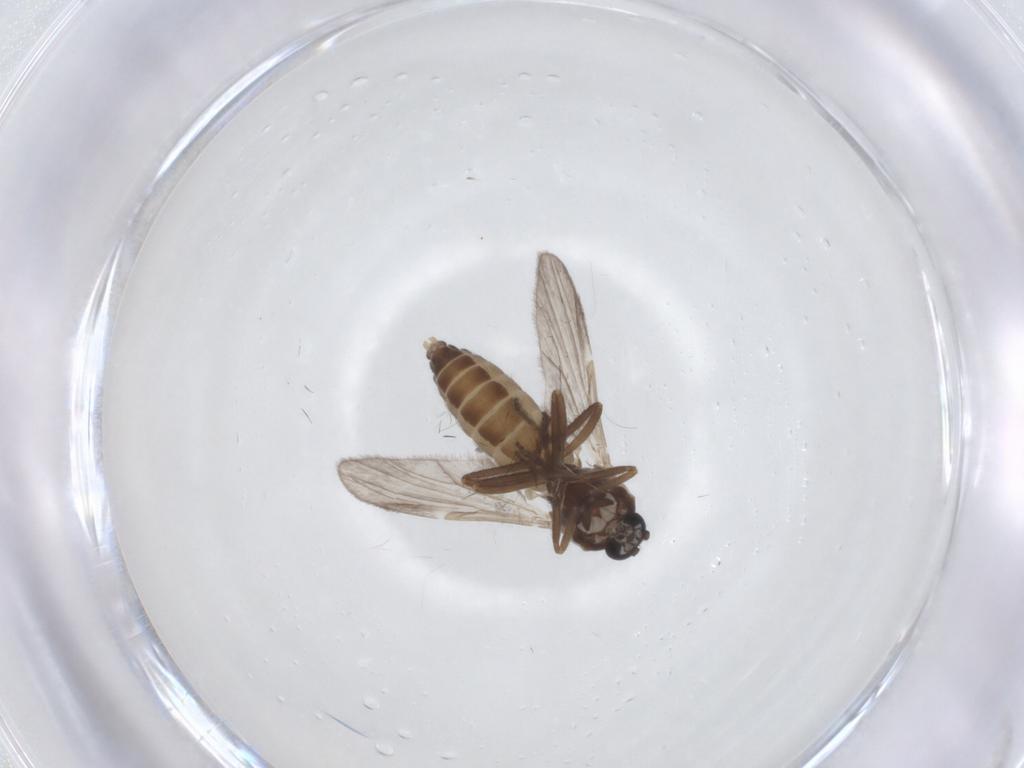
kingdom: Animalia
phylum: Arthropoda
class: Insecta
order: Diptera
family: Ceratopogonidae
